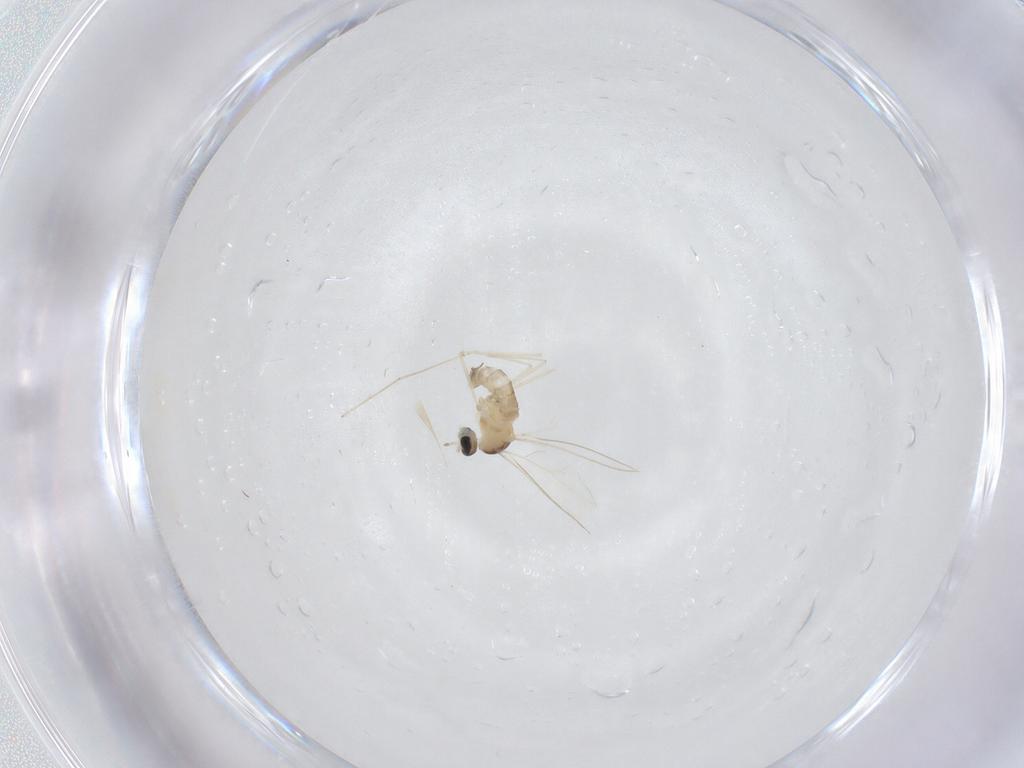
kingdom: Animalia
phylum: Arthropoda
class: Insecta
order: Diptera
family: Cecidomyiidae
